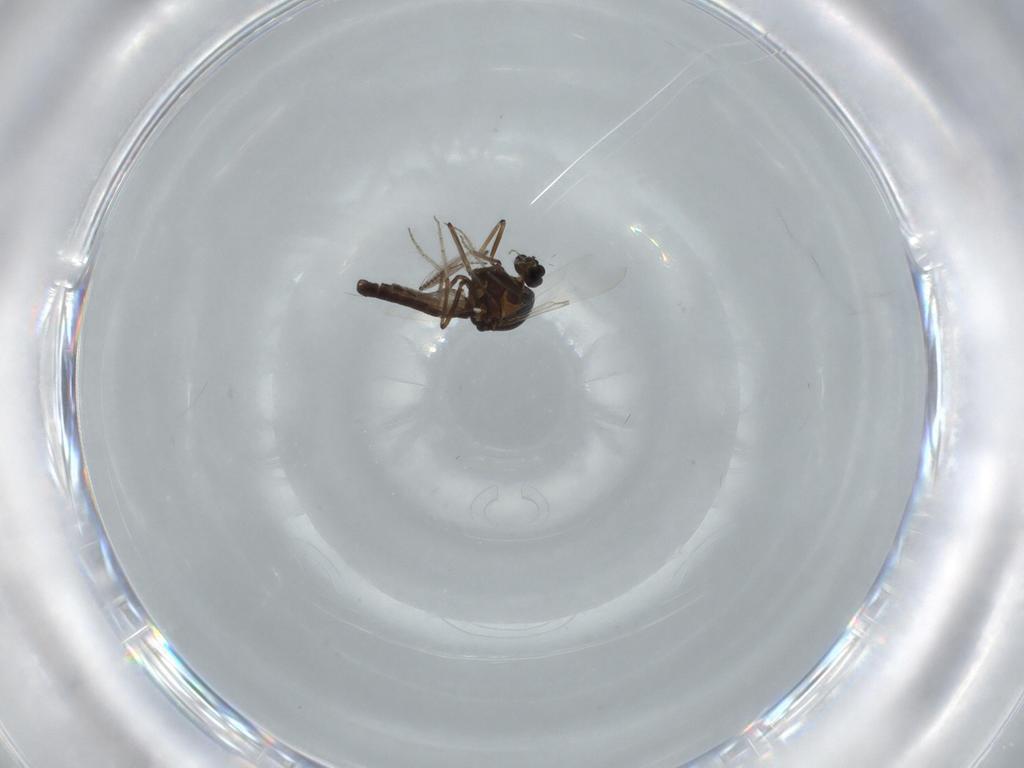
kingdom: Animalia
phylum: Arthropoda
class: Insecta
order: Diptera
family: Ceratopogonidae
